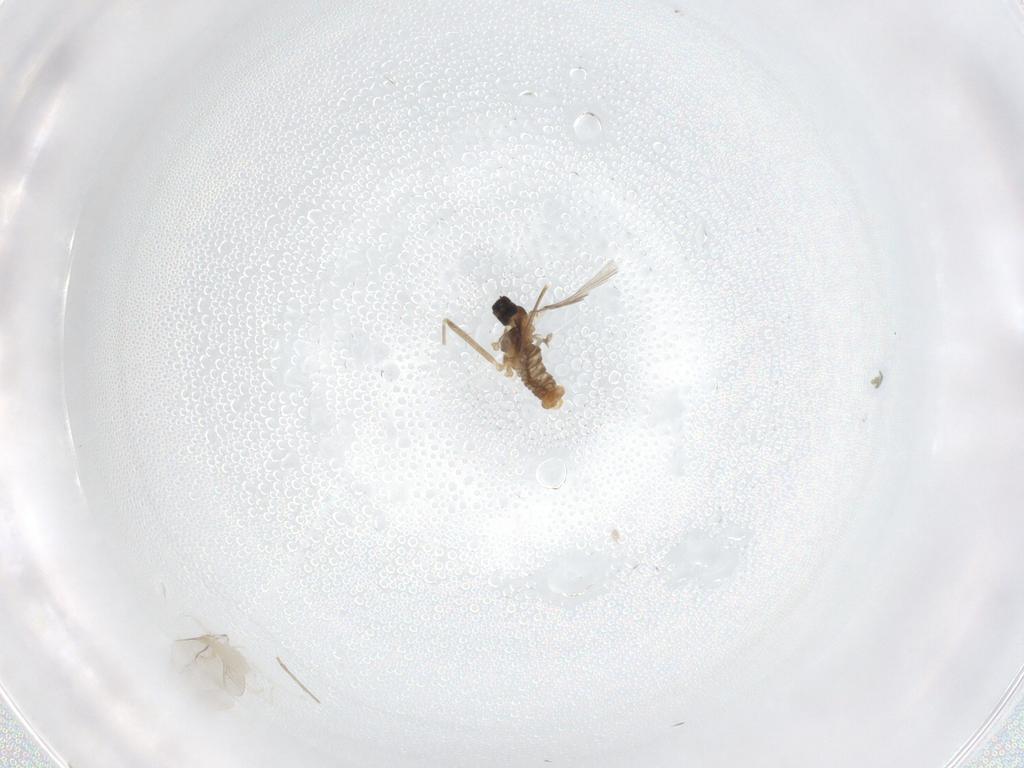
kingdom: Animalia
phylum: Arthropoda
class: Insecta
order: Diptera
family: Cecidomyiidae
